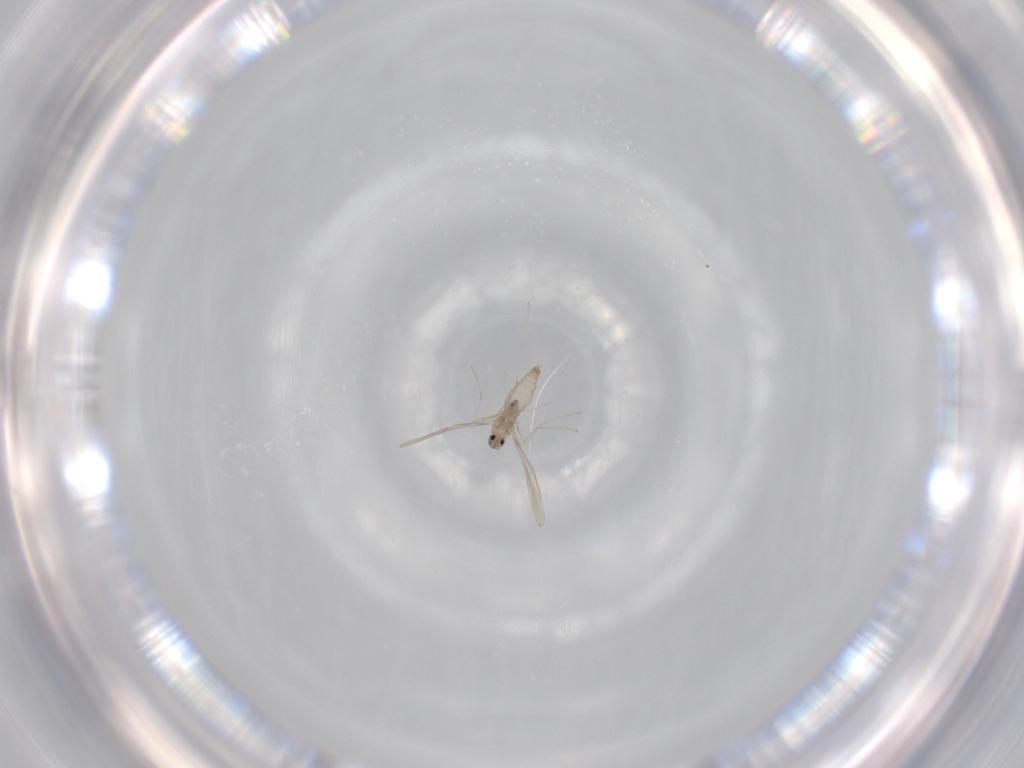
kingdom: Animalia
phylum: Arthropoda
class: Insecta
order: Diptera
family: Cecidomyiidae
